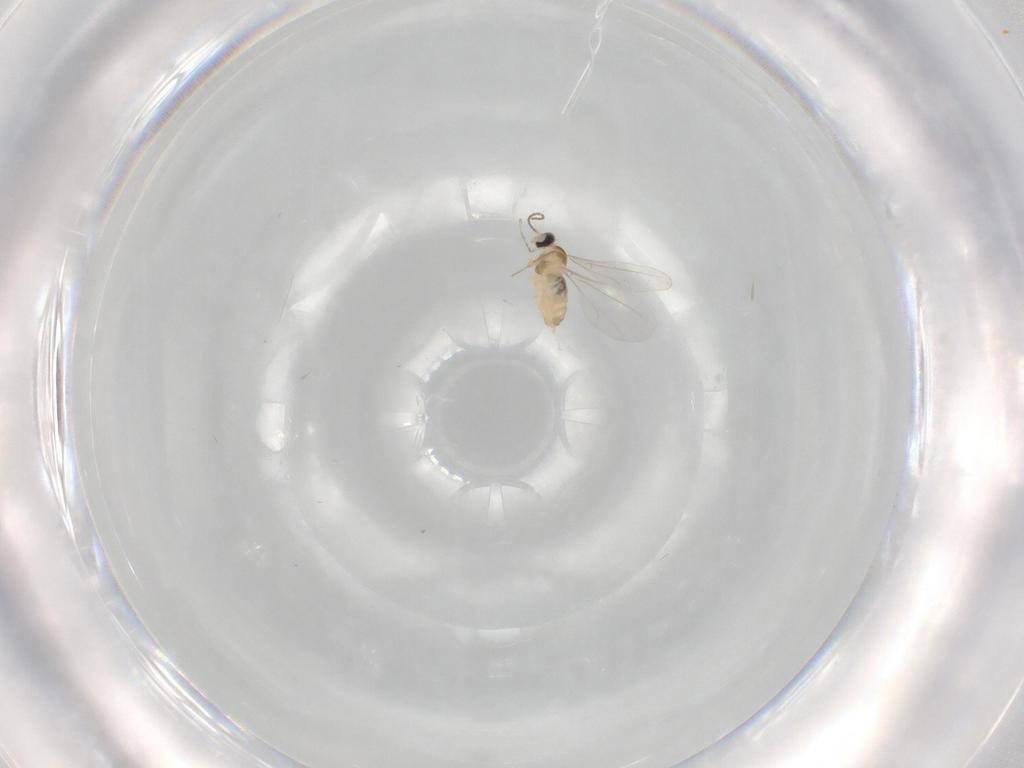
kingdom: Animalia
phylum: Arthropoda
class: Insecta
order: Diptera
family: Cecidomyiidae
